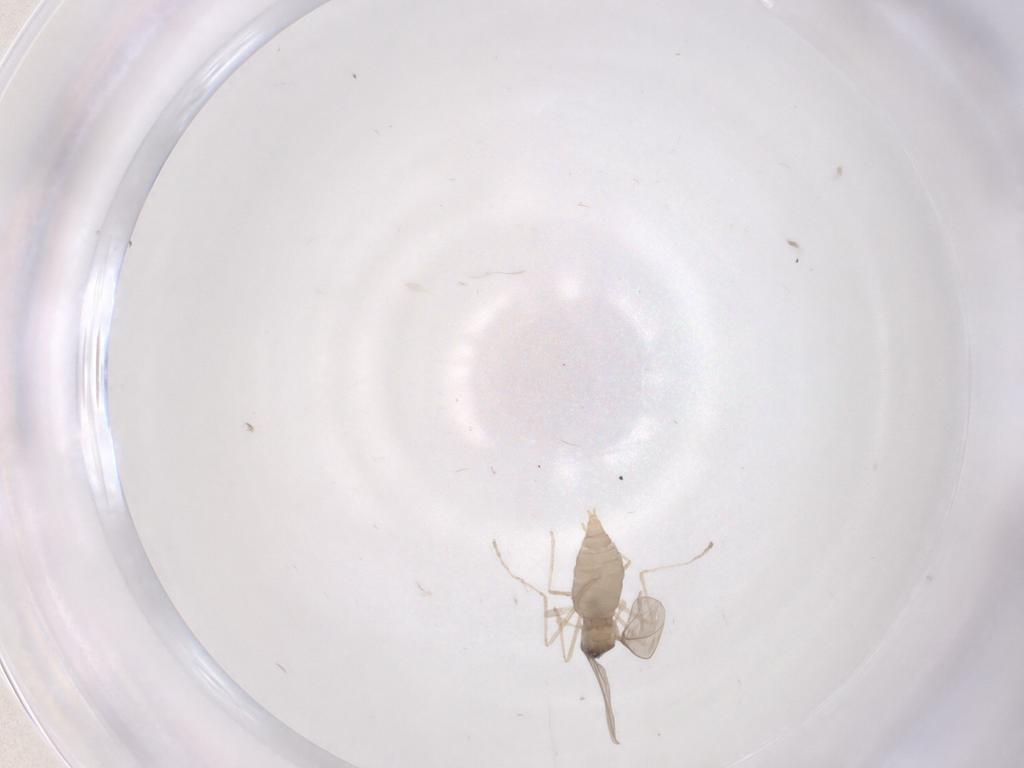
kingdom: Animalia
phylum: Arthropoda
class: Insecta
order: Diptera
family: Cecidomyiidae
